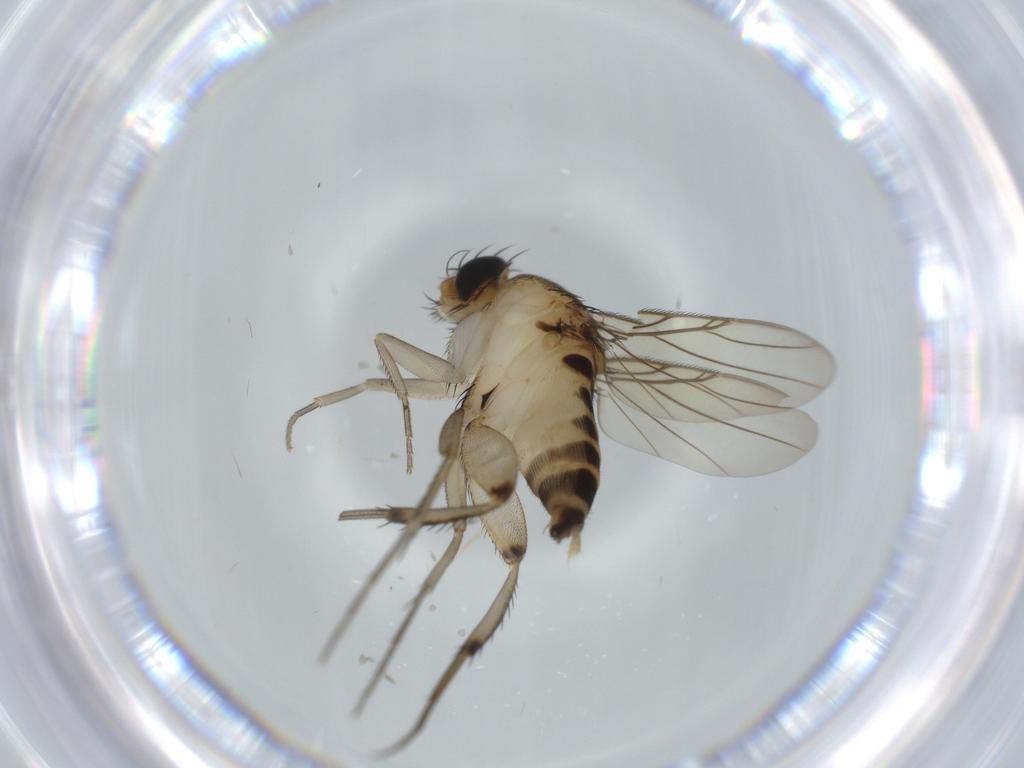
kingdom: Animalia
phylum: Arthropoda
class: Insecta
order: Diptera
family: Phoridae
